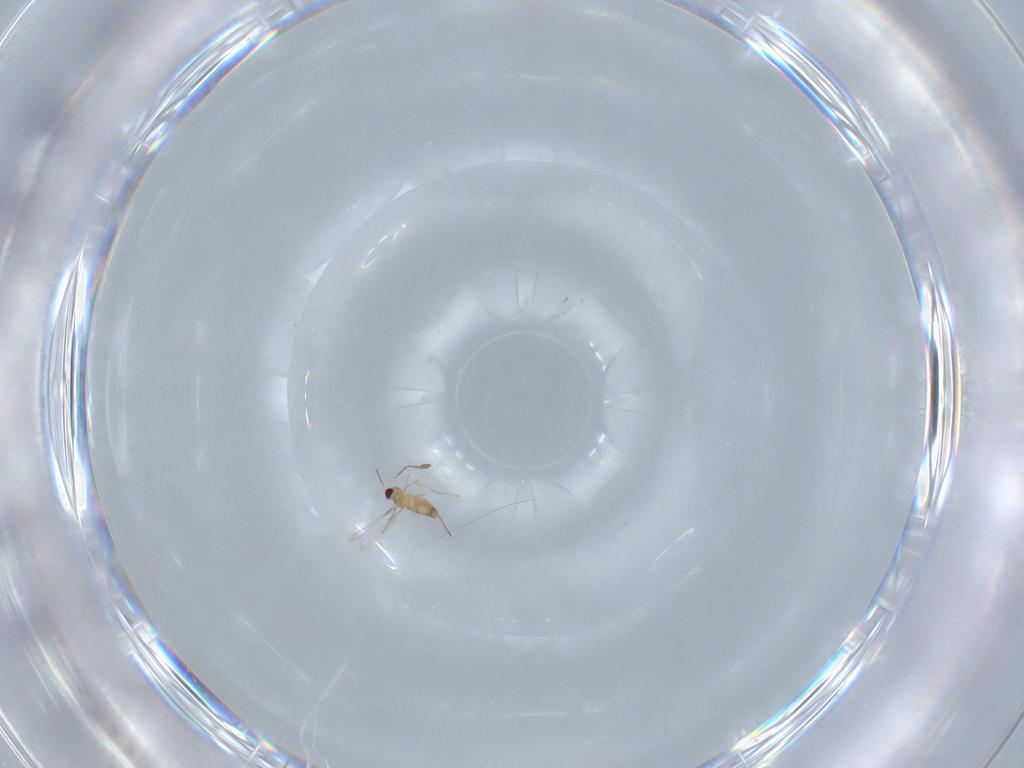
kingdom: Animalia
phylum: Arthropoda
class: Insecta
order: Hymenoptera
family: Mymaridae
